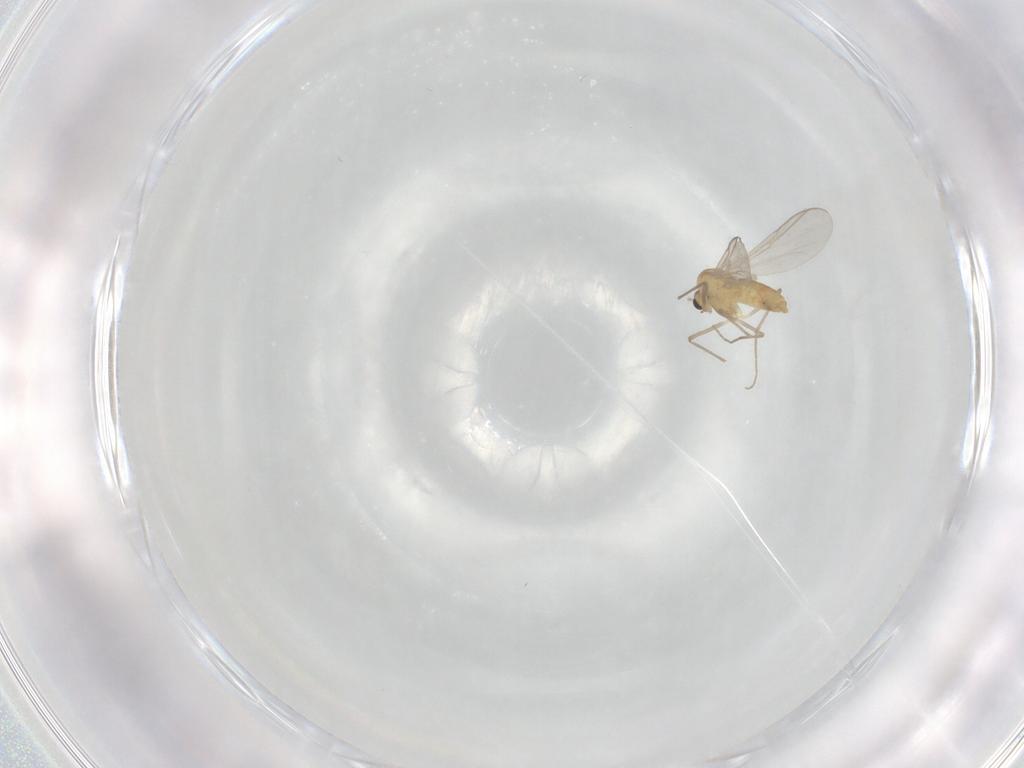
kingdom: Animalia
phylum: Arthropoda
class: Insecta
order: Diptera
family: Chironomidae
